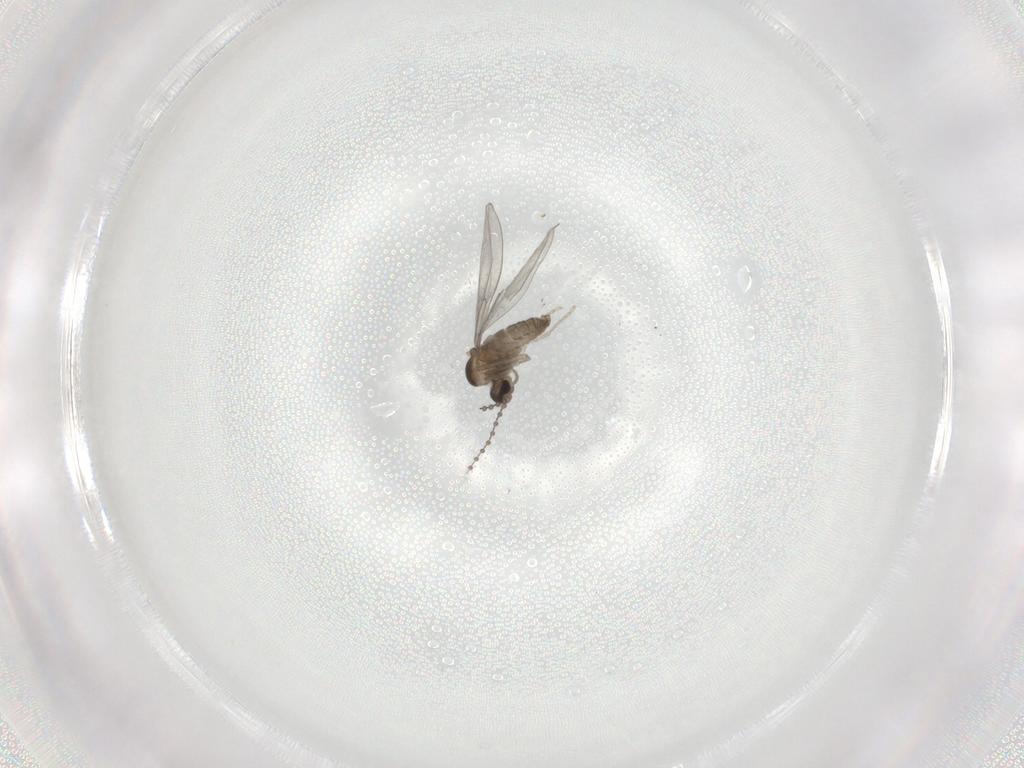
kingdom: Animalia
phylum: Arthropoda
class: Insecta
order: Diptera
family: Cecidomyiidae
